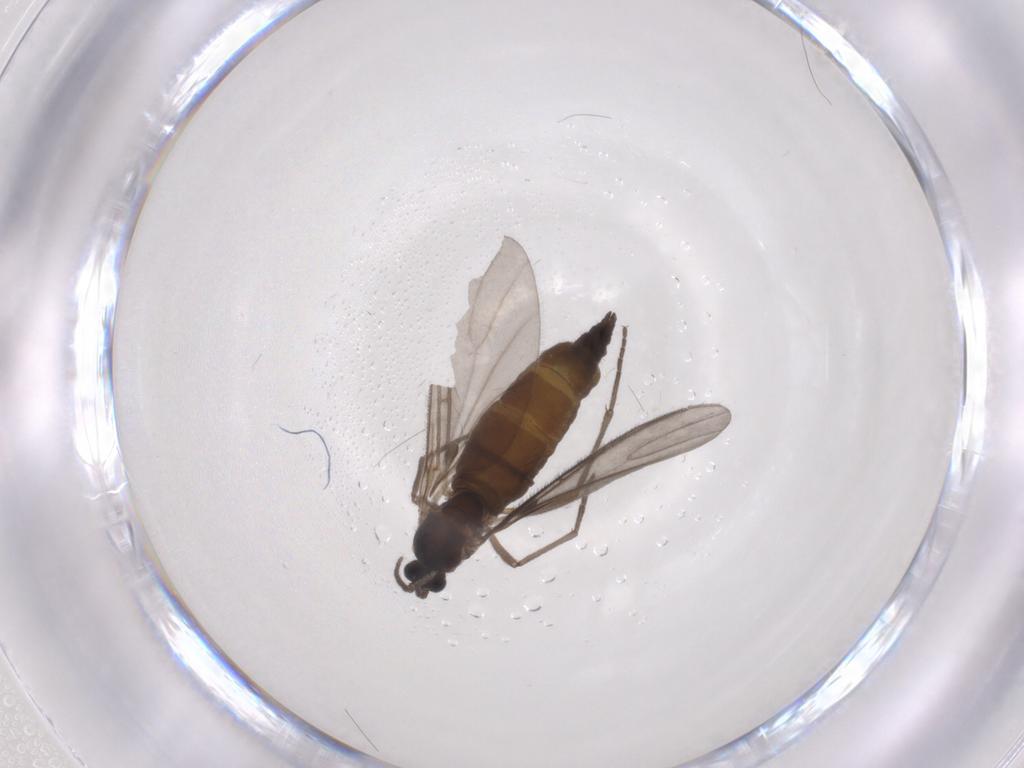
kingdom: Animalia
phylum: Arthropoda
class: Insecta
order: Diptera
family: Sciaridae
